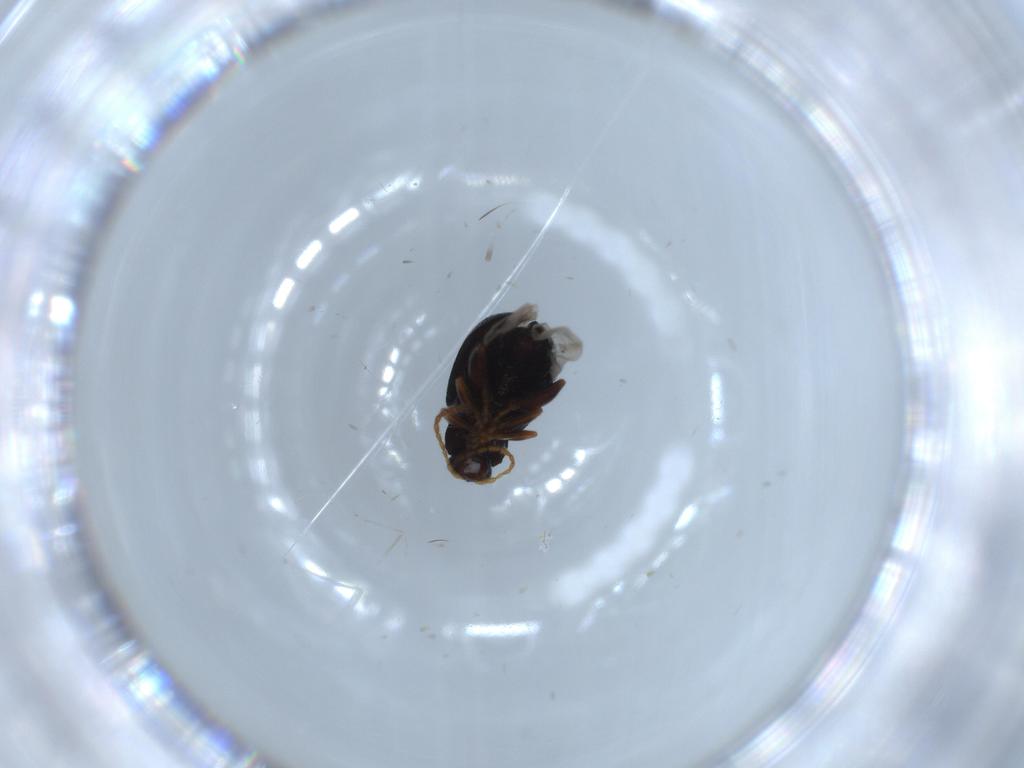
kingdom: Animalia
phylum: Arthropoda
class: Insecta
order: Coleoptera
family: Chrysomelidae
